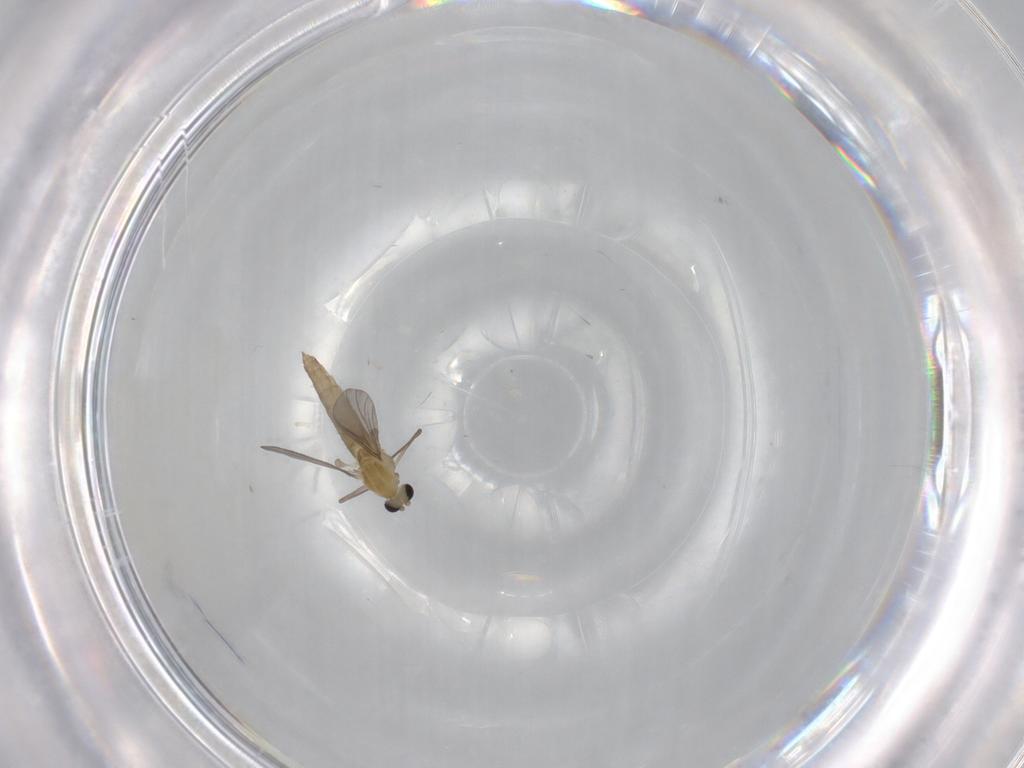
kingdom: Animalia
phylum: Arthropoda
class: Insecta
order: Diptera
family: Chironomidae
